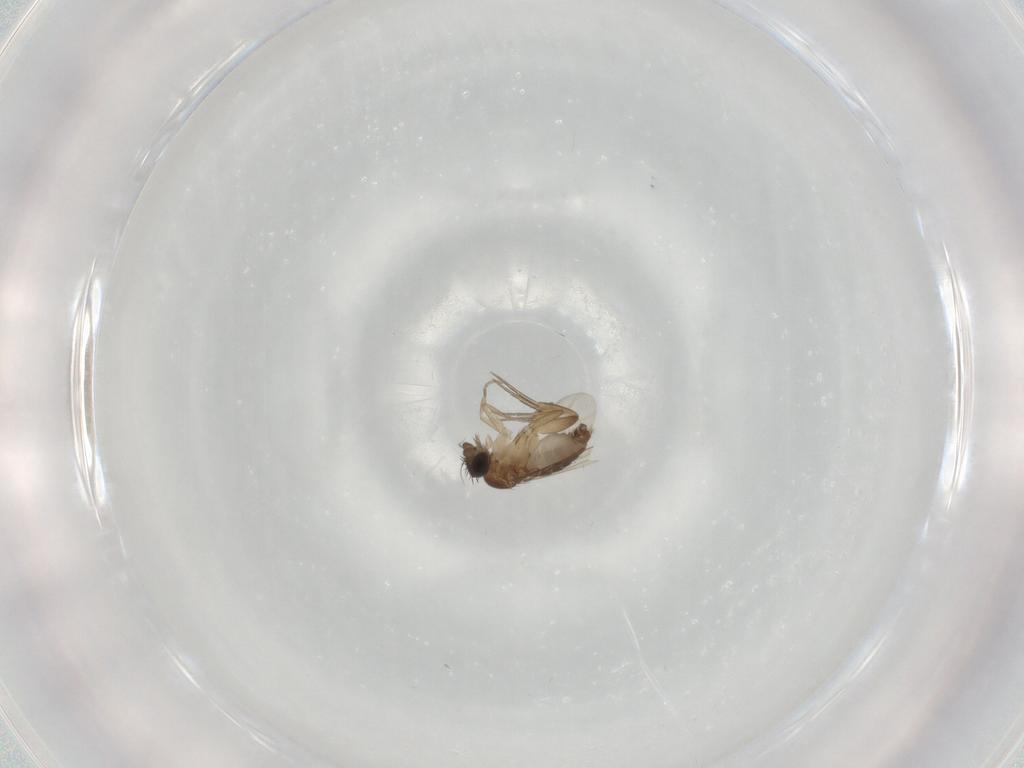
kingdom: Animalia
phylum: Arthropoda
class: Insecta
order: Diptera
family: Phoridae
